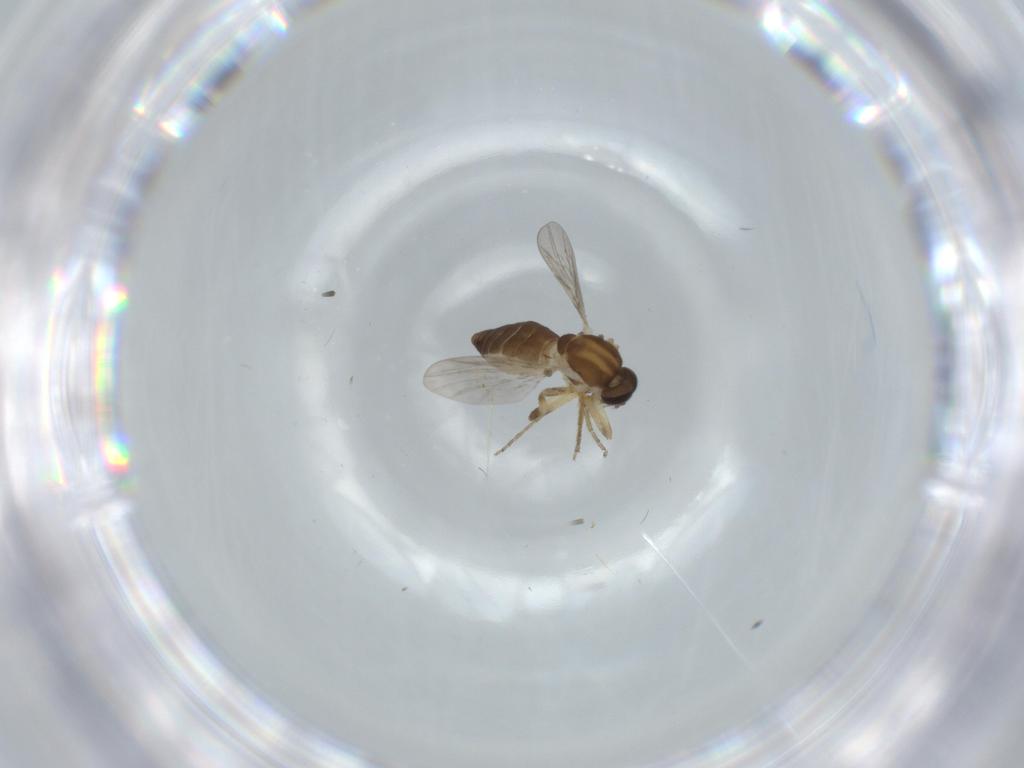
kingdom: Animalia
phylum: Arthropoda
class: Insecta
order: Diptera
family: Ceratopogonidae
